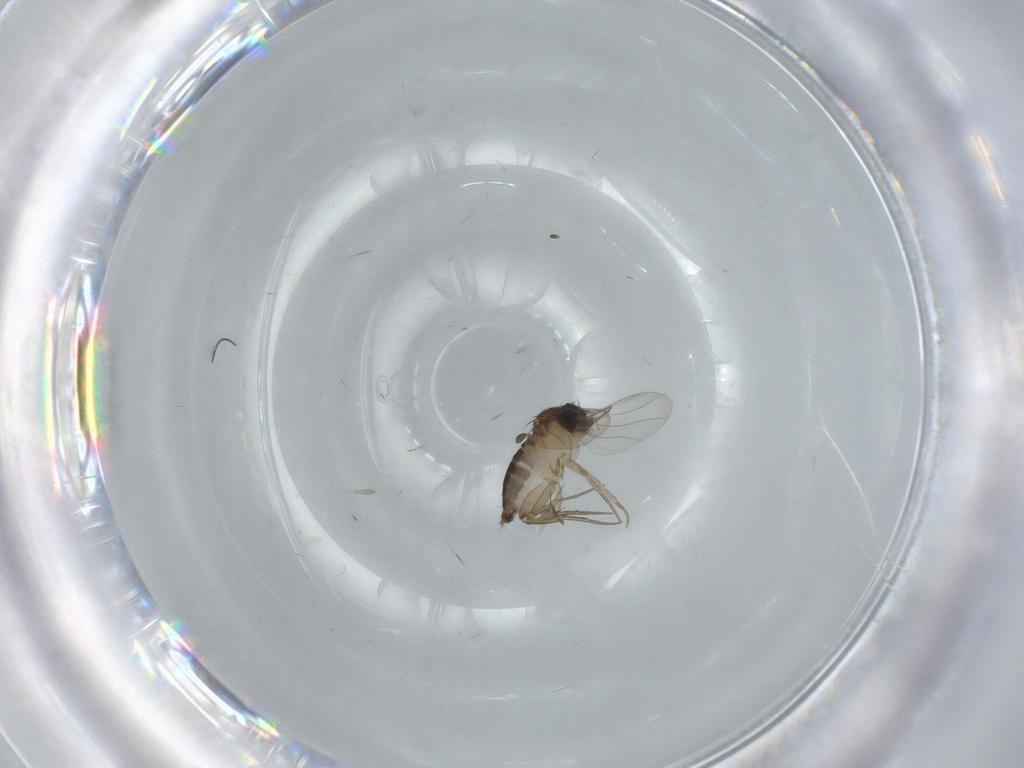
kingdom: Animalia
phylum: Arthropoda
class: Insecta
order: Diptera
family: Phoridae
